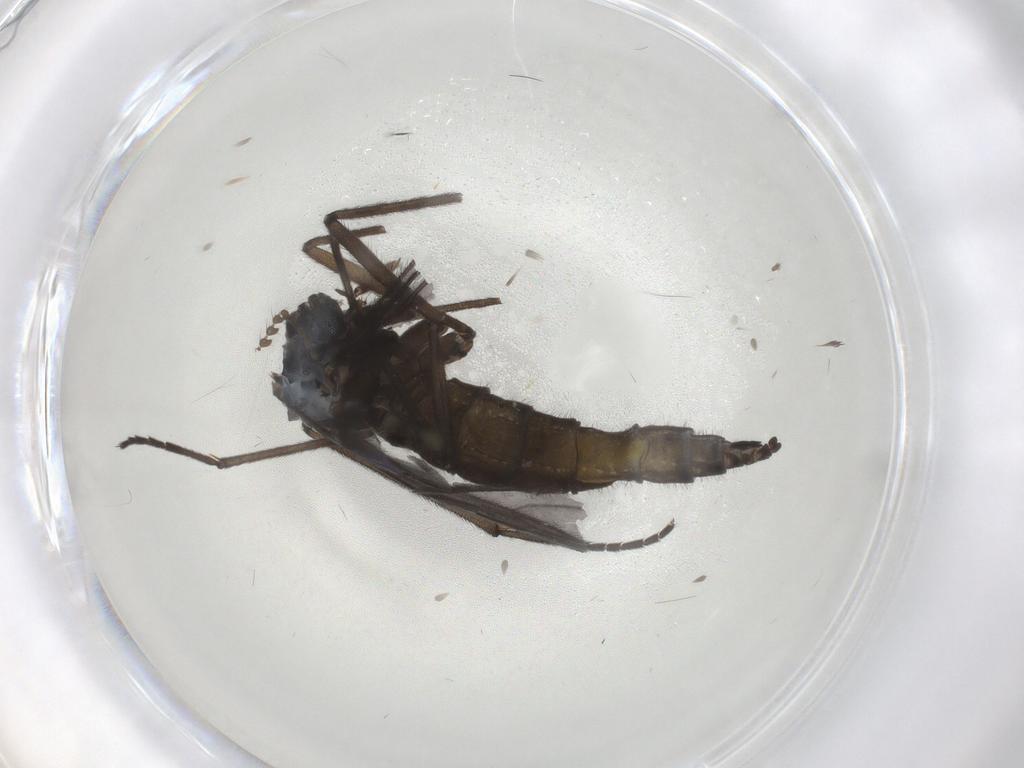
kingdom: Animalia
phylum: Arthropoda
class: Insecta
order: Diptera
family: Sciaridae
